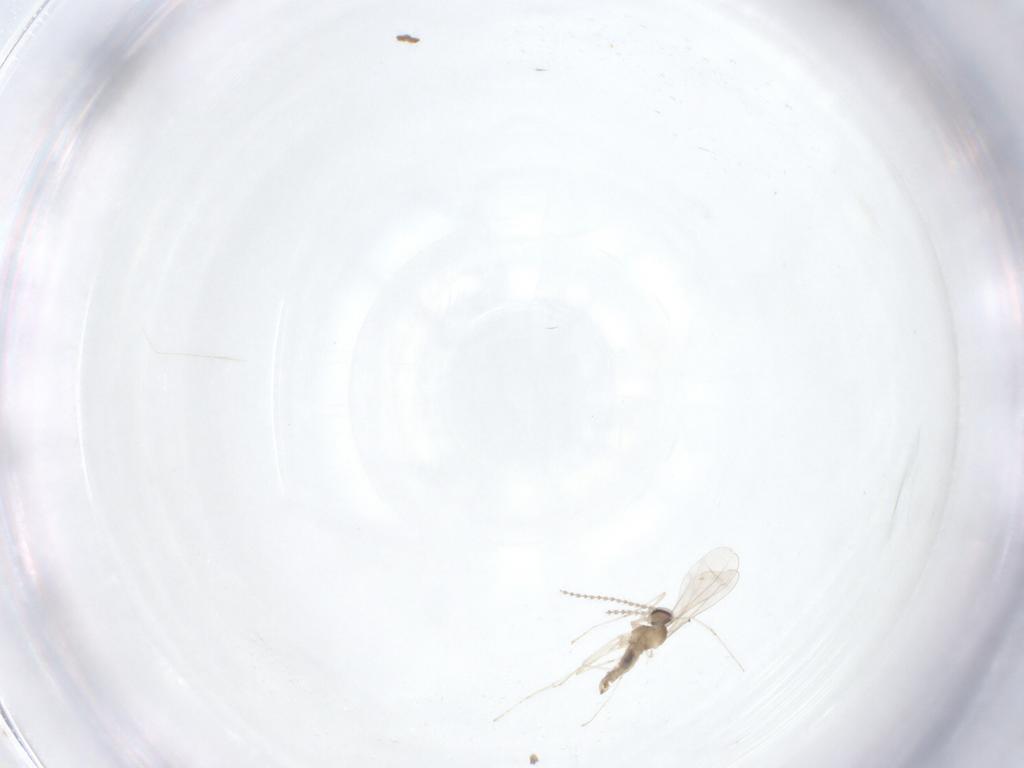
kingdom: Animalia
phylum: Arthropoda
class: Insecta
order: Diptera
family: Cecidomyiidae
